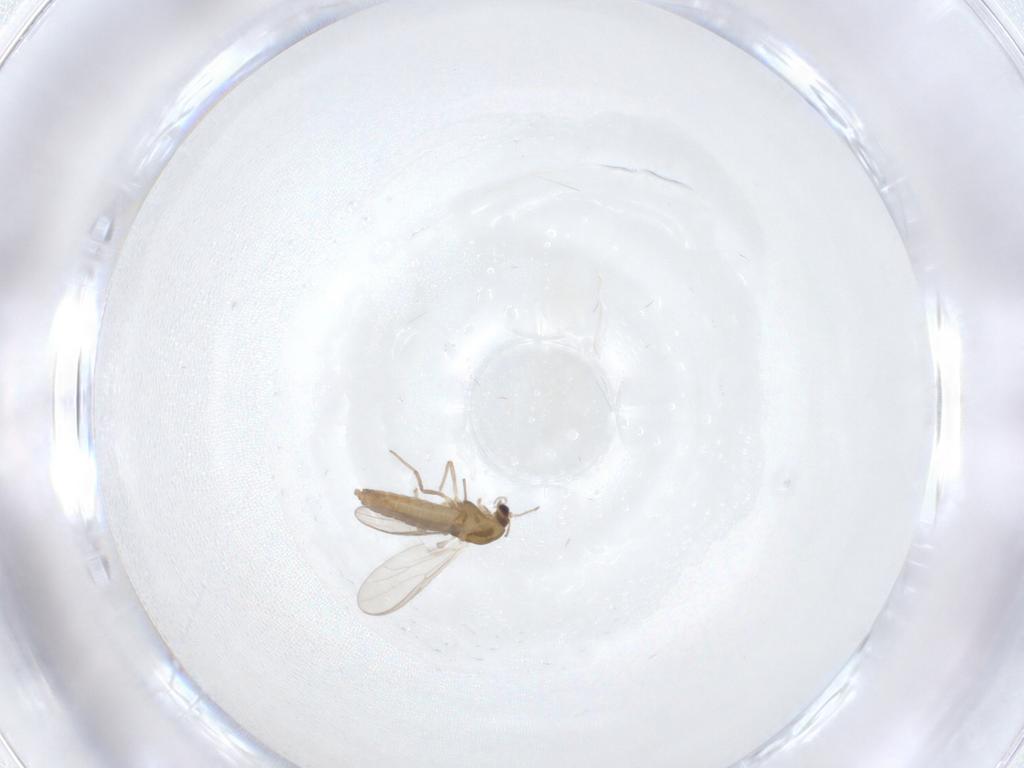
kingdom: Animalia
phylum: Arthropoda
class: Insecta
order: Diptera
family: Chironomidae
